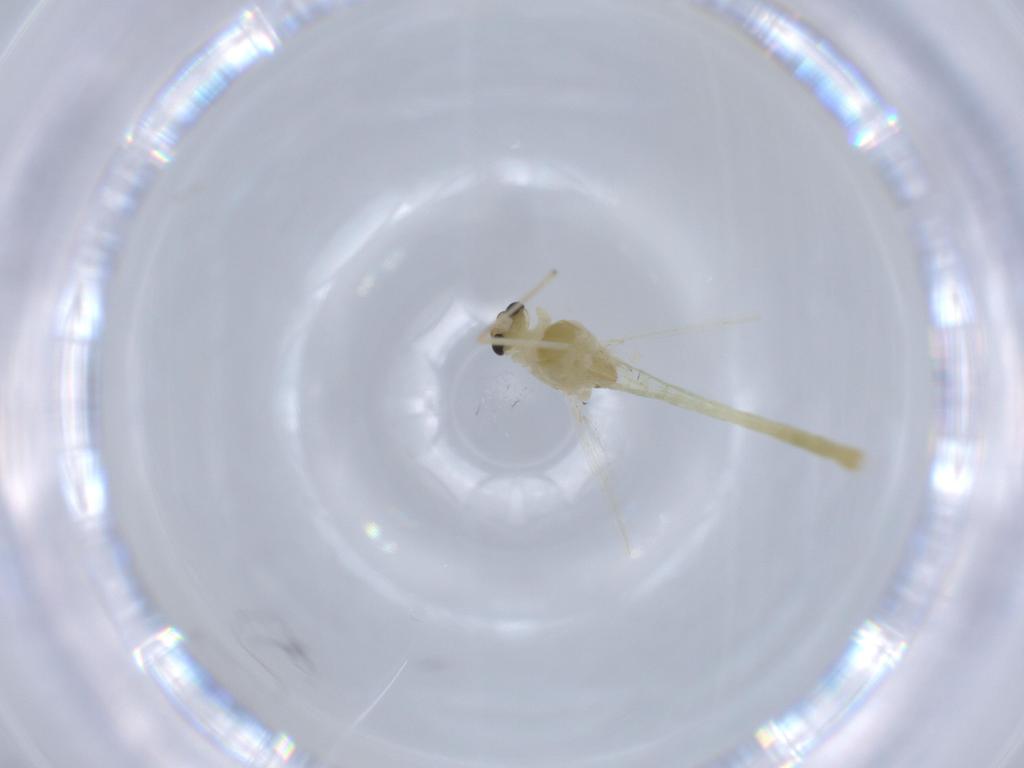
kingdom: Animalia
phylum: Arthropoda
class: Insecta
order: Diptera
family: Chironomidae
